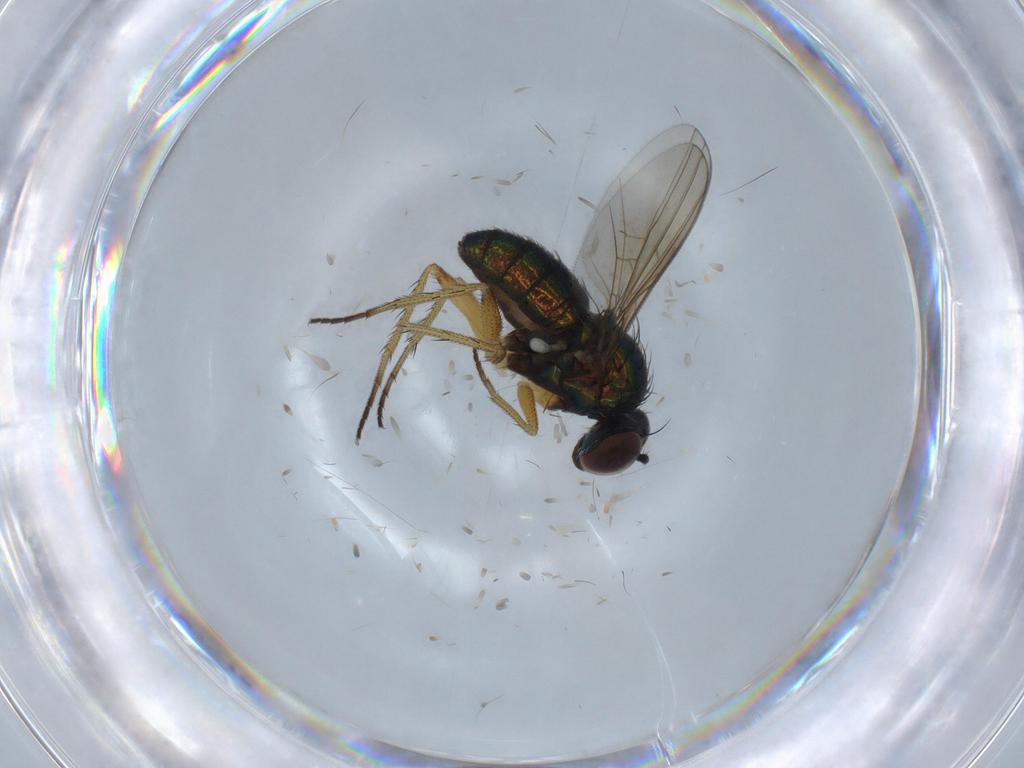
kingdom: Animalia
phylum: Arthropoda
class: Insecta
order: Diptera
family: Dolichopodidae
